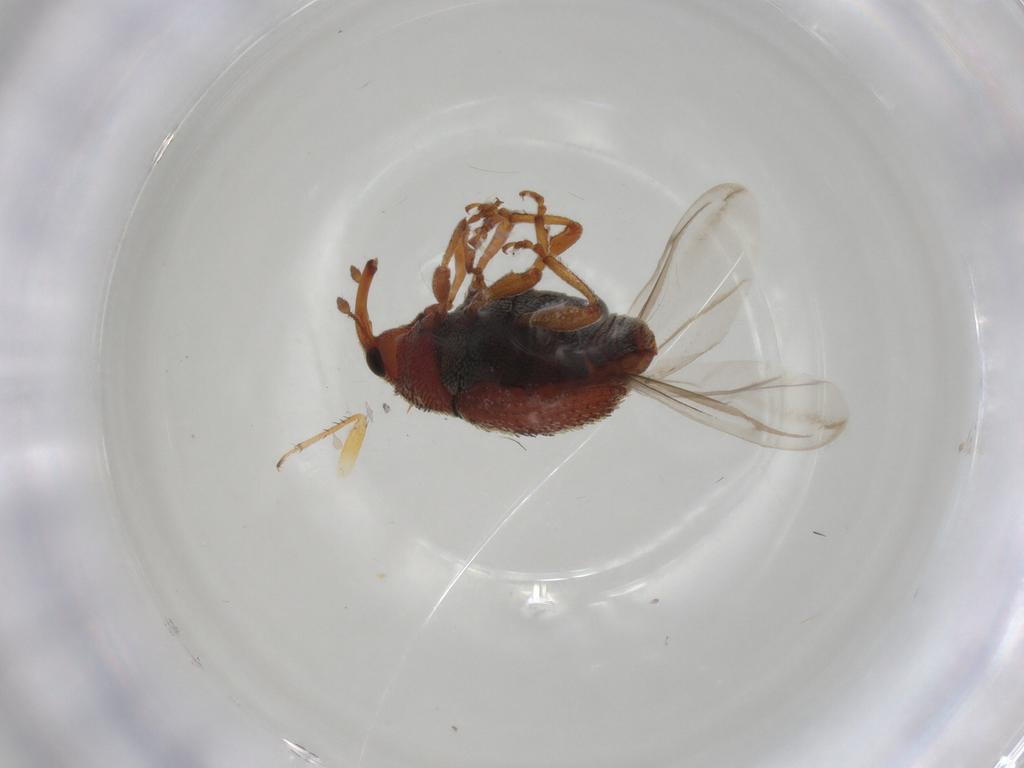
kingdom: Animalia
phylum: Arthropoda
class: Insecta
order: Coleoptera
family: Curculionidae
